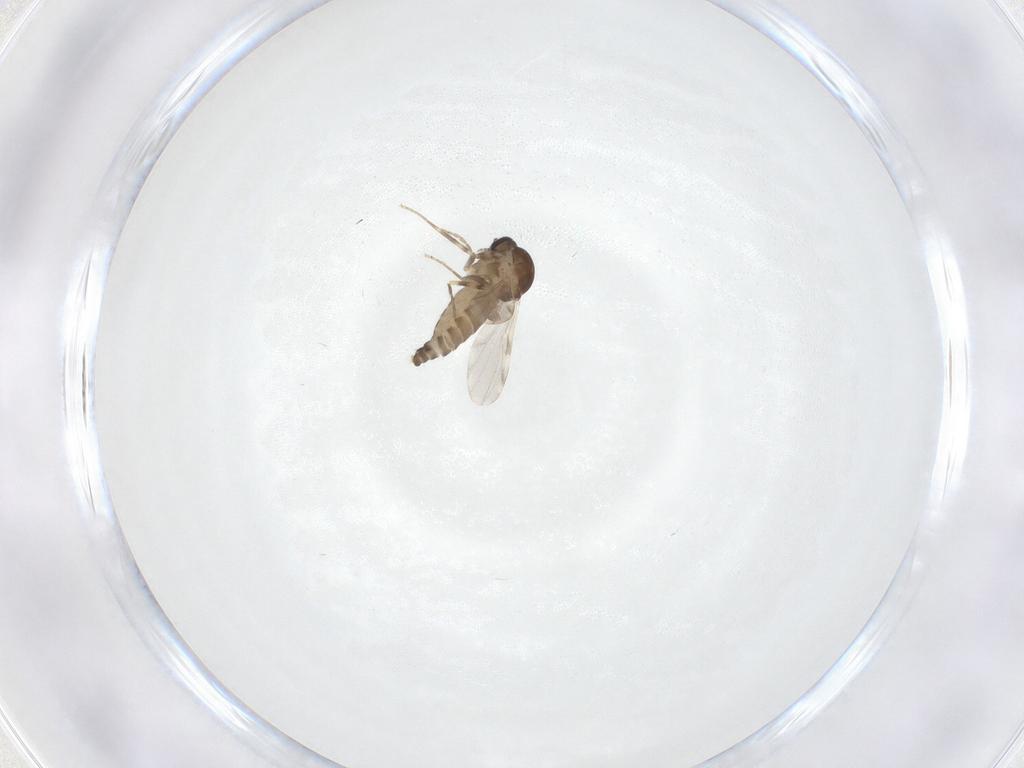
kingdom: Animalia
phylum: Arthropoda
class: Insecta
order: Diptera
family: Ceratopogonidae
